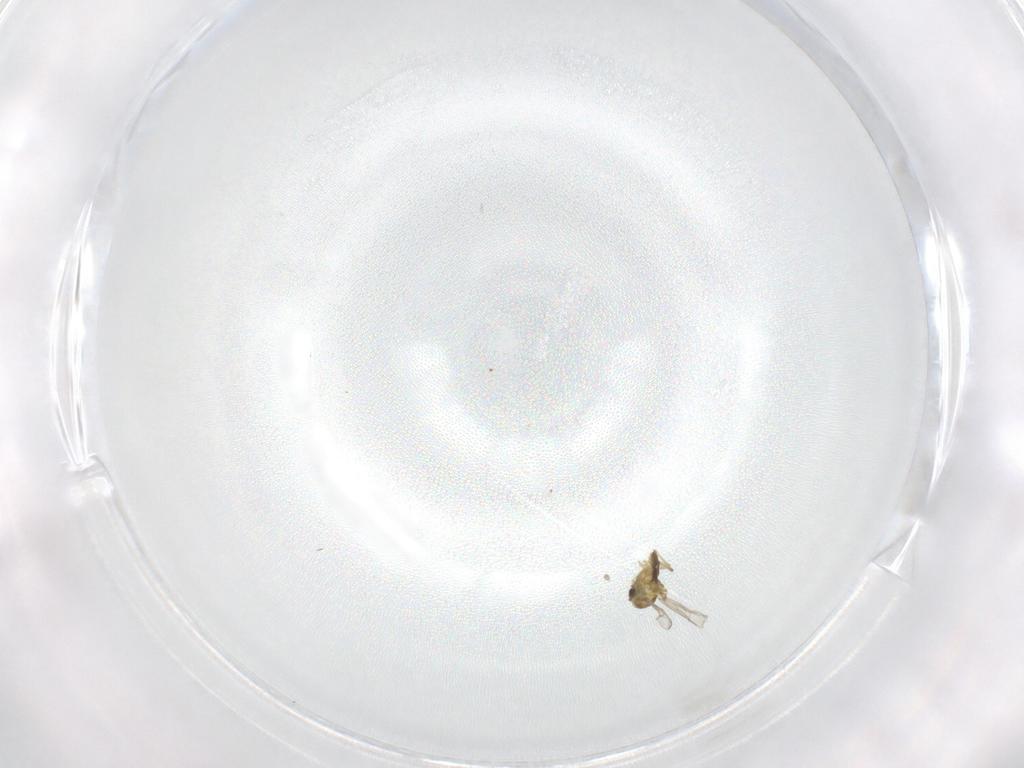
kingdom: Animalia
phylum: Arthropoda
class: Insecta
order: Diptera
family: Chironomidae
